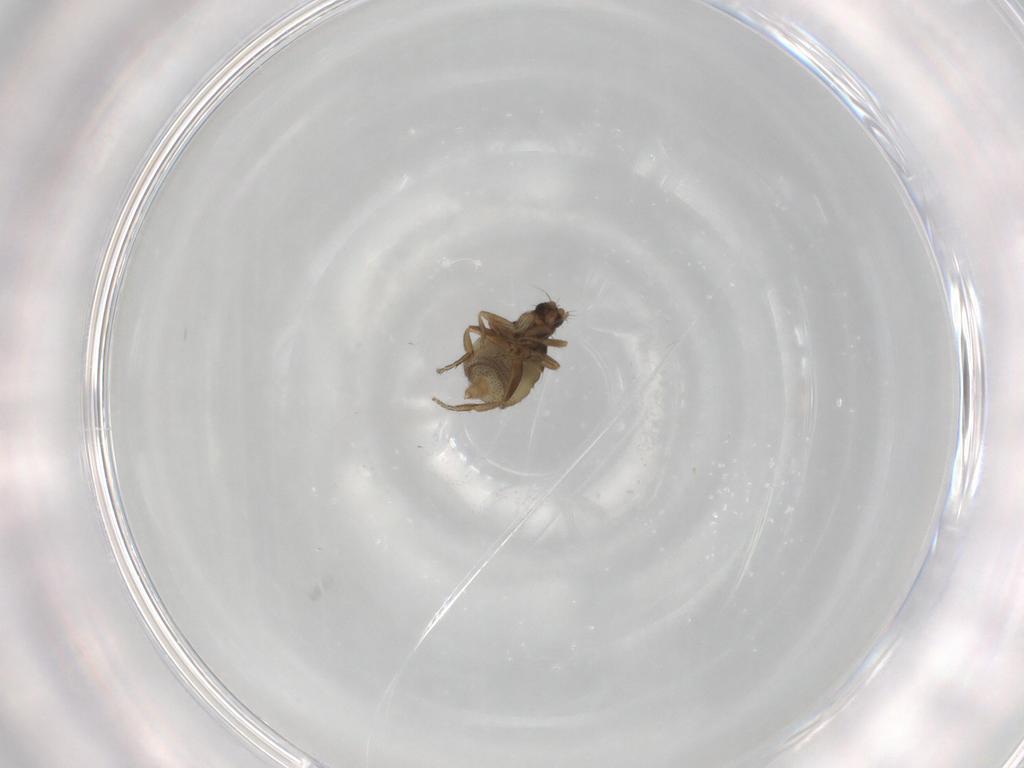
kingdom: Animalia
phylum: Arthropoda
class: Insecta
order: Diptera
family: Phoridae
